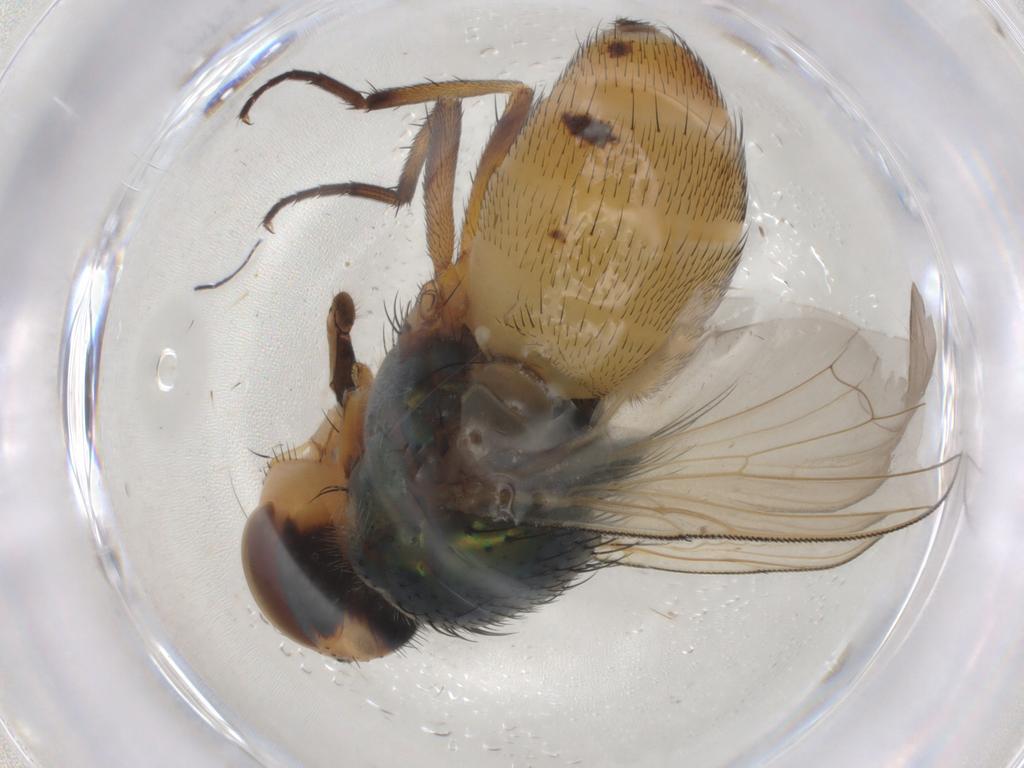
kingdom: Animalia
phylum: Arthropoda
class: Insecta
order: Diptera
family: Calliphoridae
